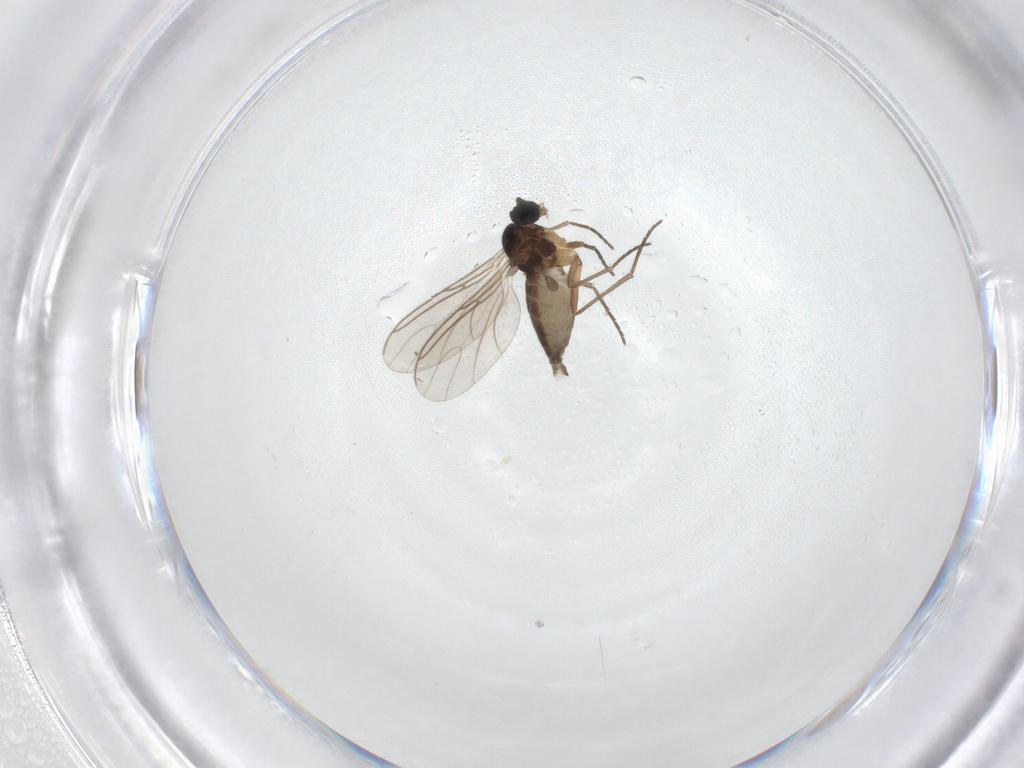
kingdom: Animalia
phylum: Arthropoda
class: Insecta
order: Diptera
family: Sciaridae
